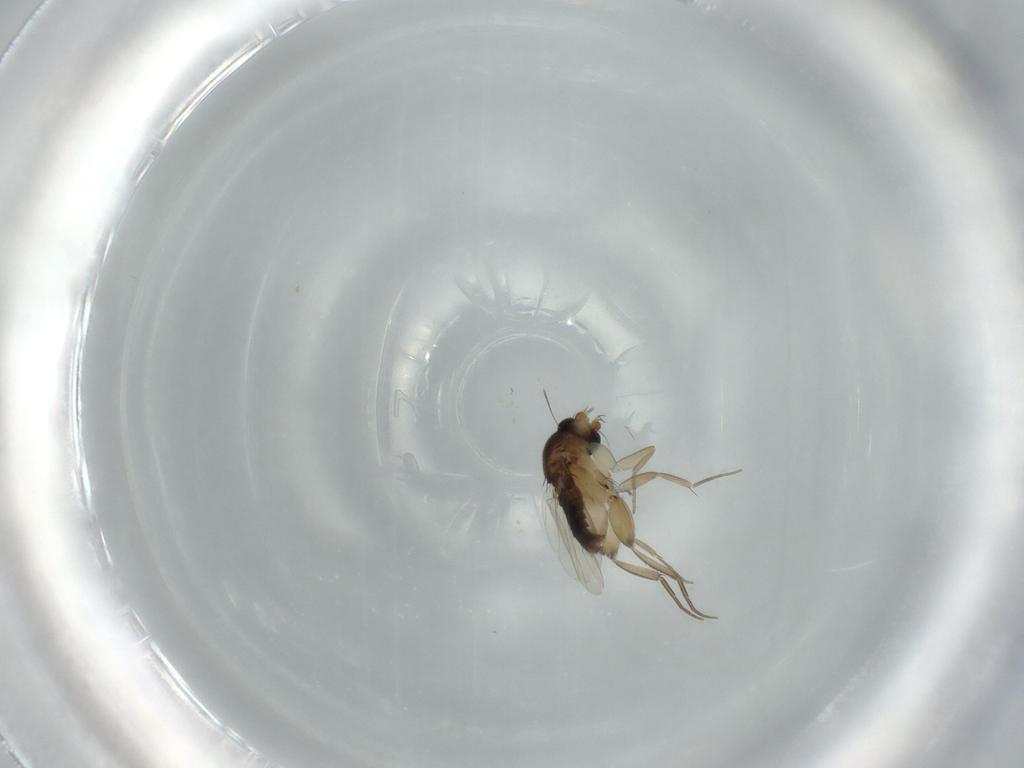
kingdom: Animalia
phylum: Arthropoda
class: Insecta
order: Diptera
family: Phoridae
